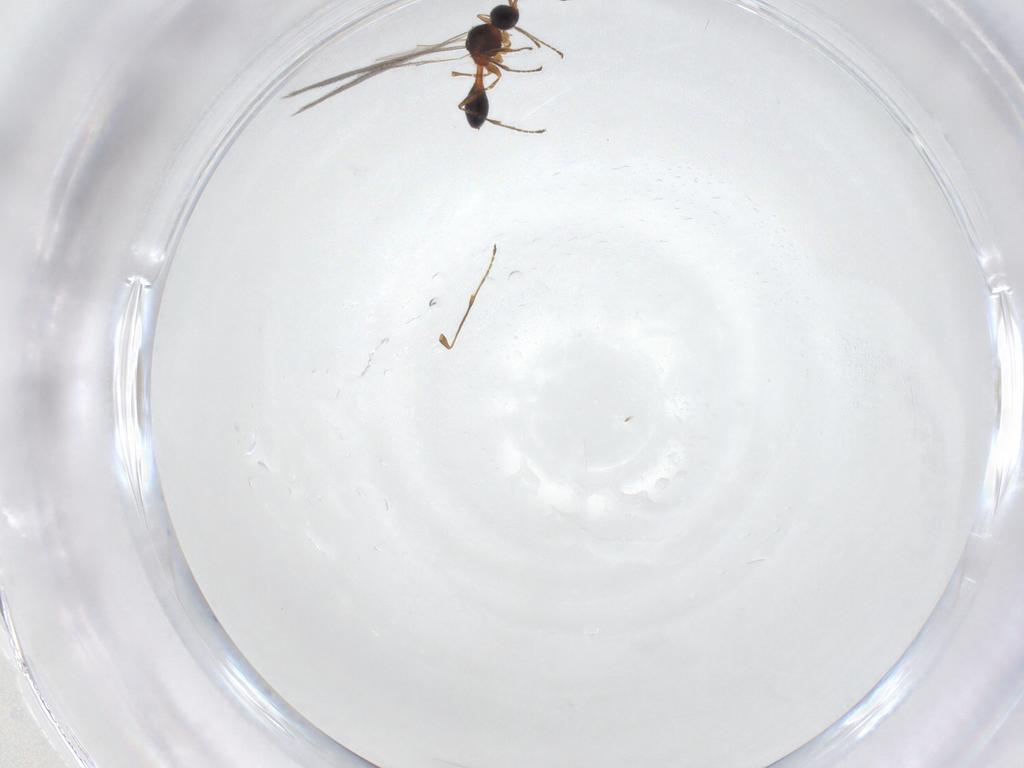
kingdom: Animalia
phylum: Arthropoda
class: Insecta
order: Hymenoptera
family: Diapriidae
